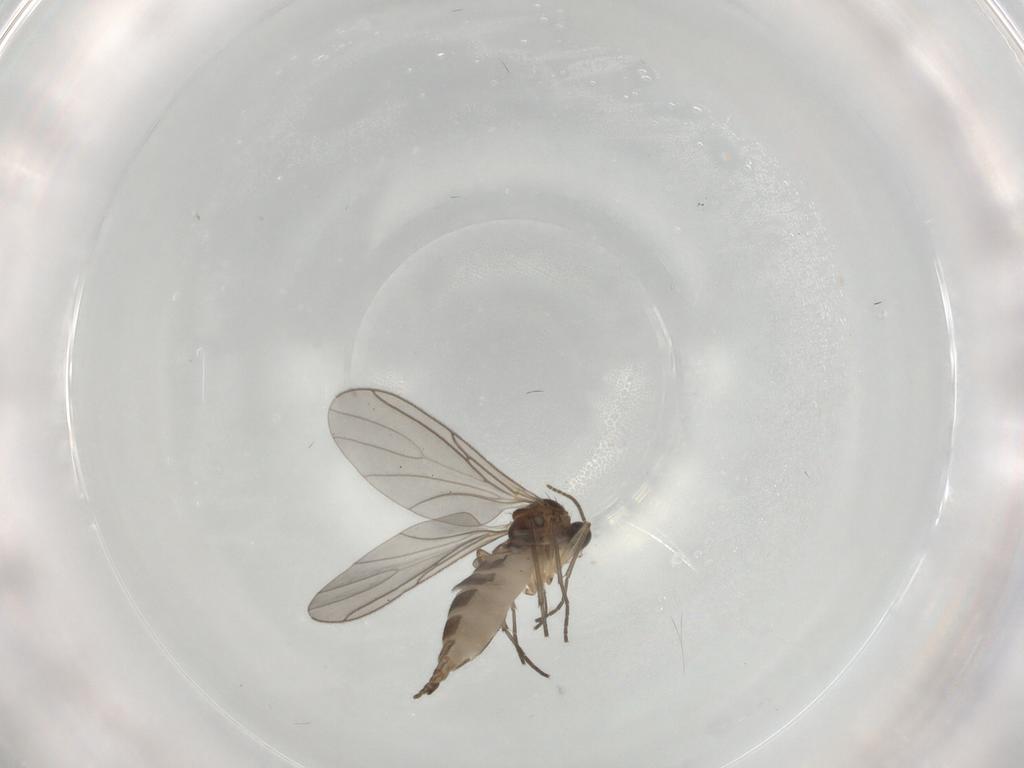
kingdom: Animalia
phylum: Arthropoda
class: Insecta
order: Diptera
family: Sciaridae
